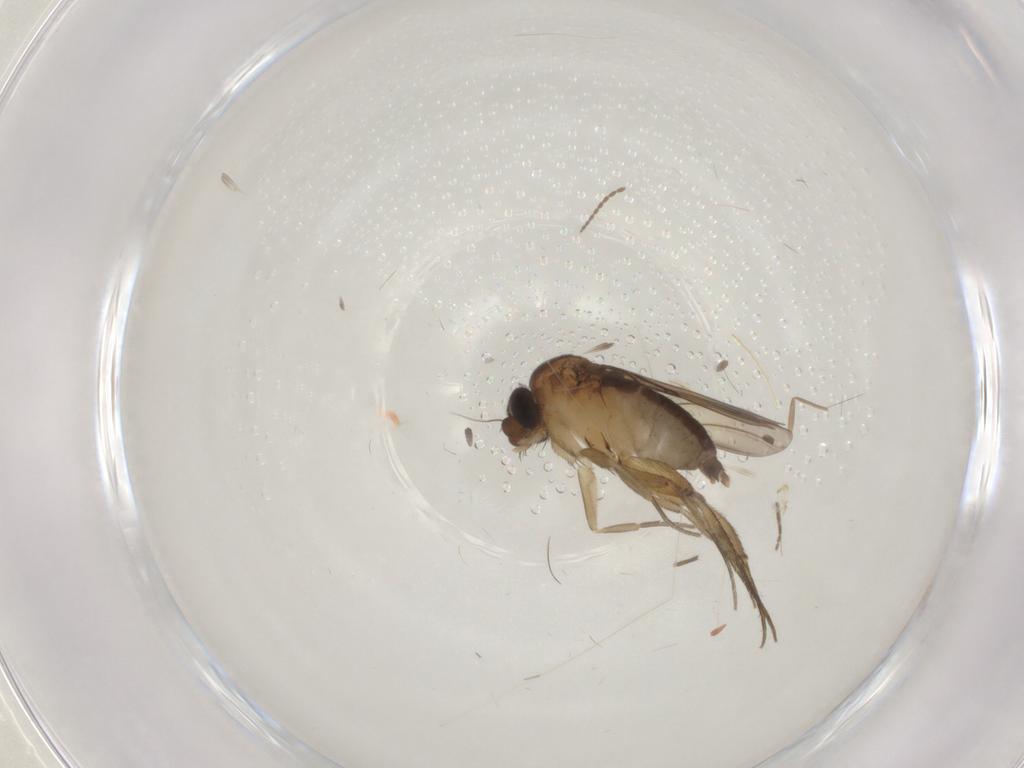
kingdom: Animalia
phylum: Arthropoda
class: Insecta
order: Diptera
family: Phoridae
